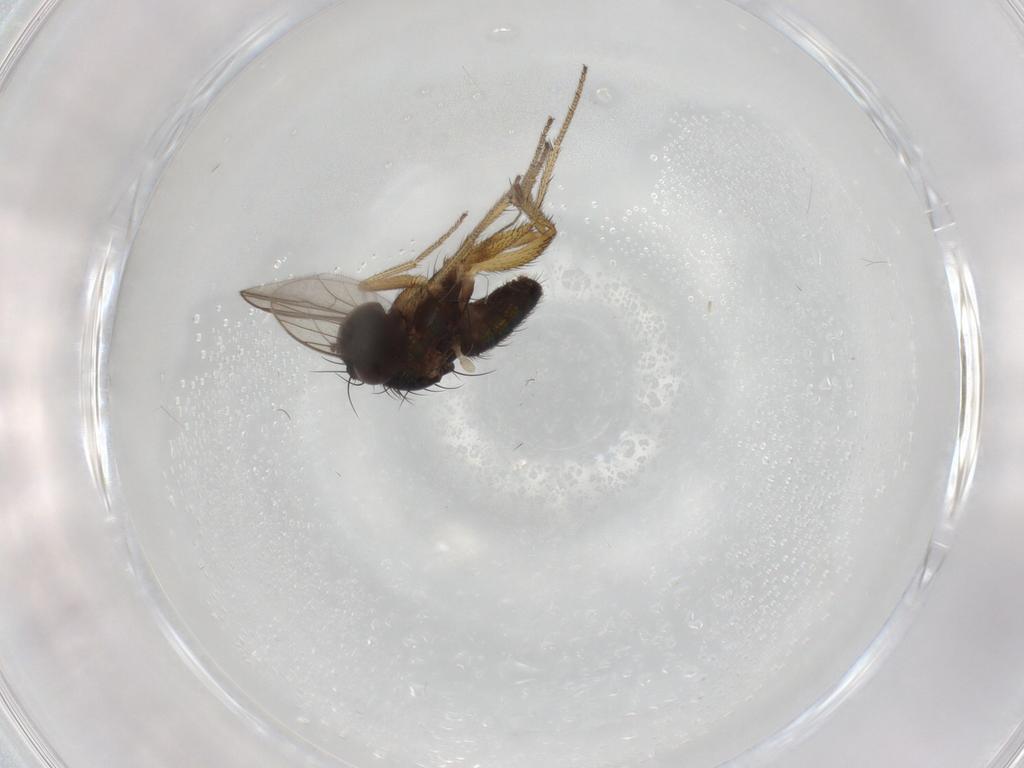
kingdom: Animalia
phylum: Arthropoda
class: Insecta
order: Diptera
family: Dolichopodidae
